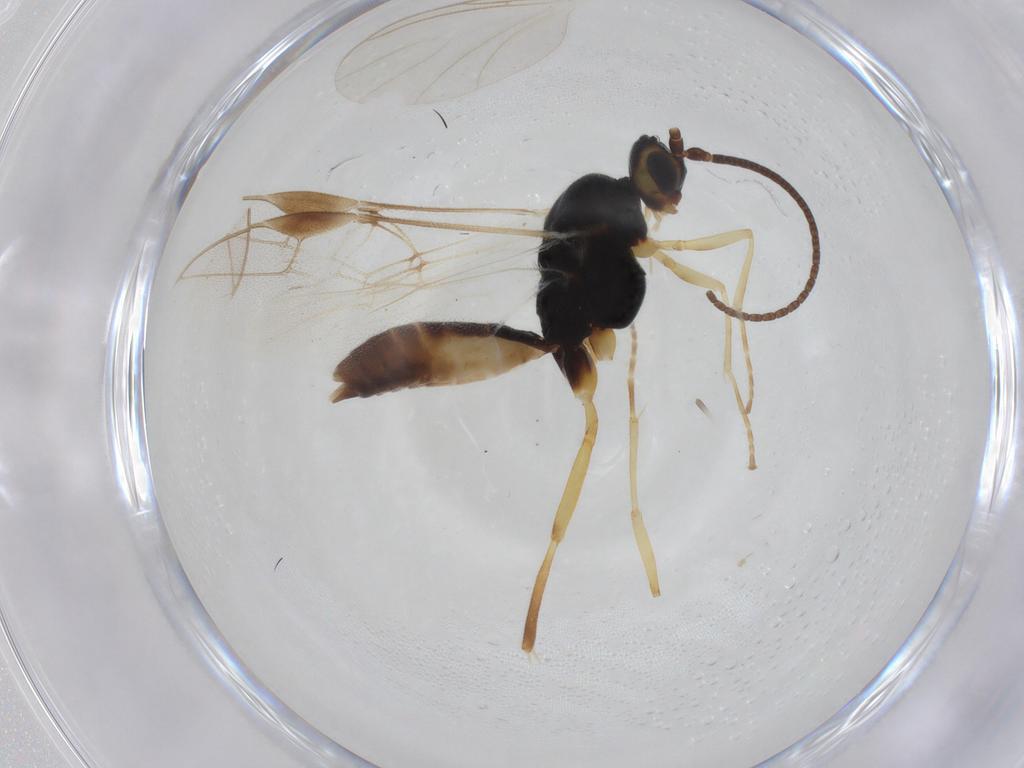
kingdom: Animalia
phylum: Arthropoda
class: Insecta
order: Hymenoptera
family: Braconidae
